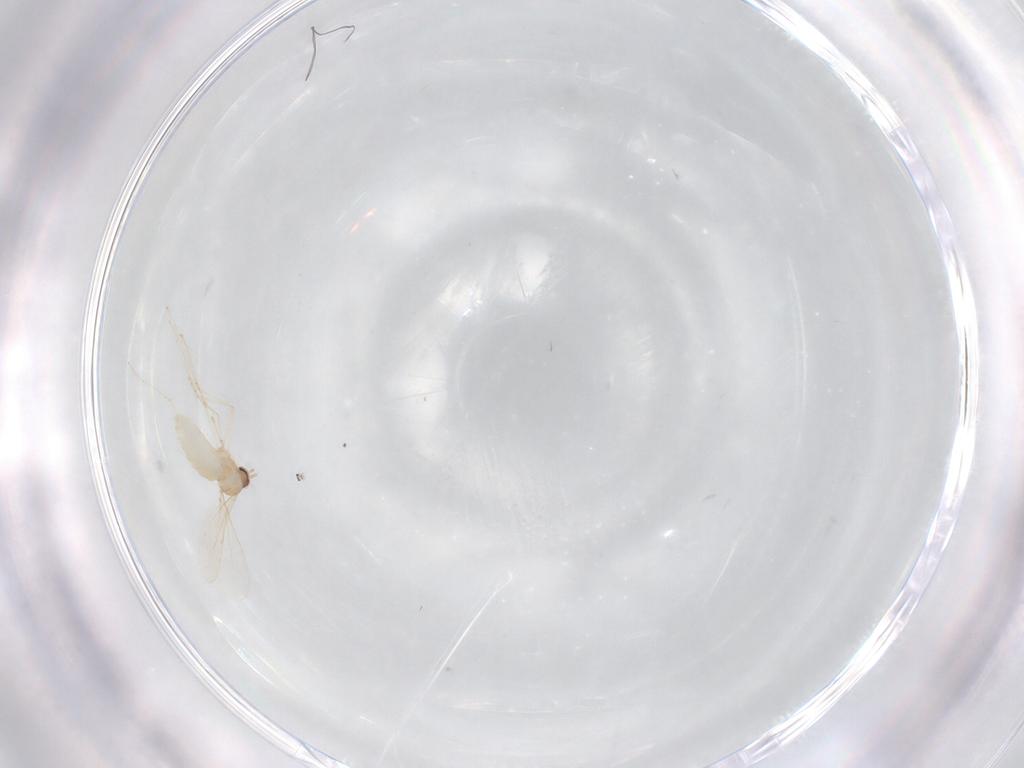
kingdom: Animalia
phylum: Arthropoda
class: Insecta
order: Diptera
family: Cecidomyiidae
